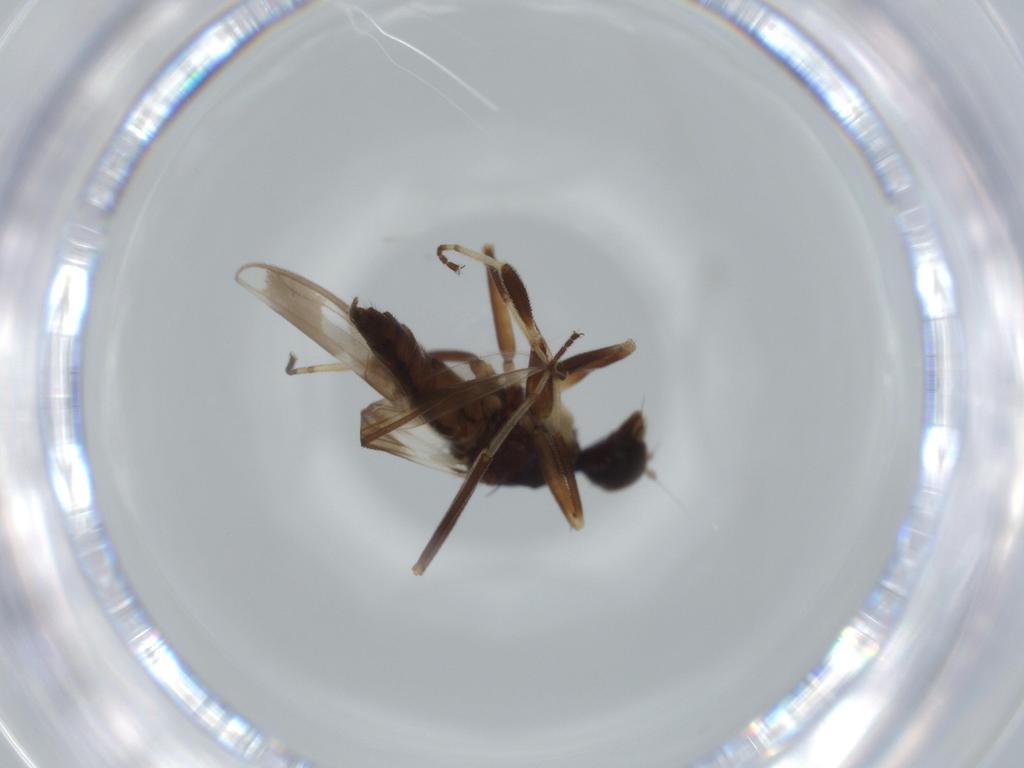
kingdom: Animalia
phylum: Arthropoda
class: Insecta
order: Diptera
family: Hybotidae
